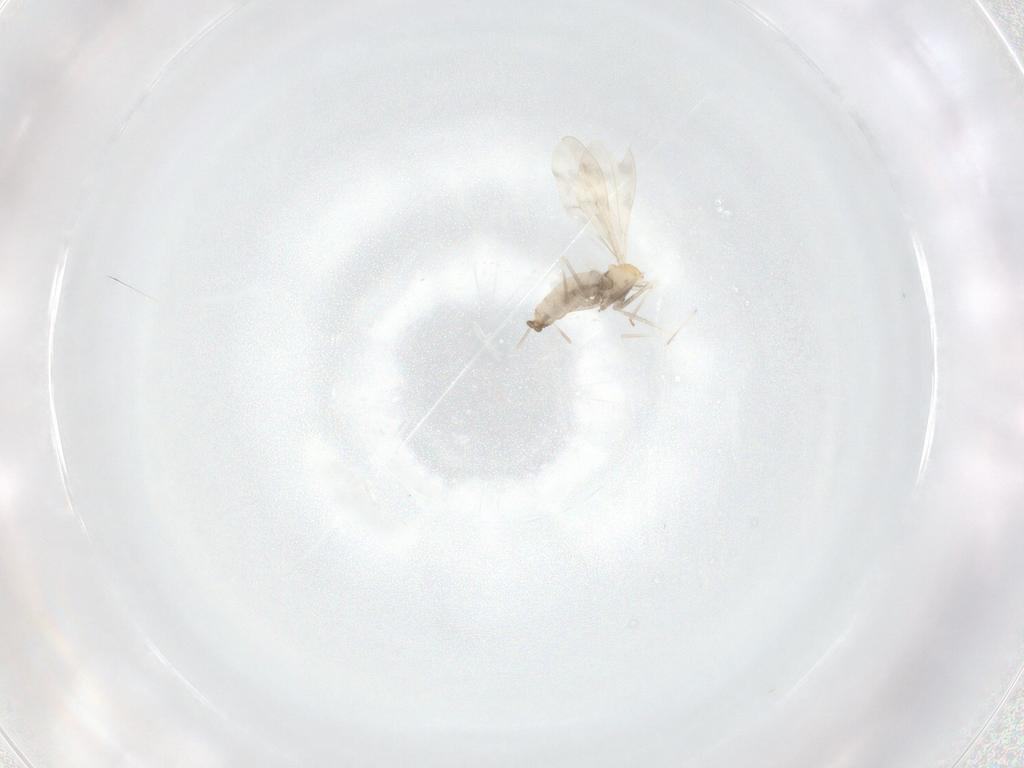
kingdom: Animalia
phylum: Arthropoda
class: Insecta
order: Diptera
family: Cecidomyiidae
